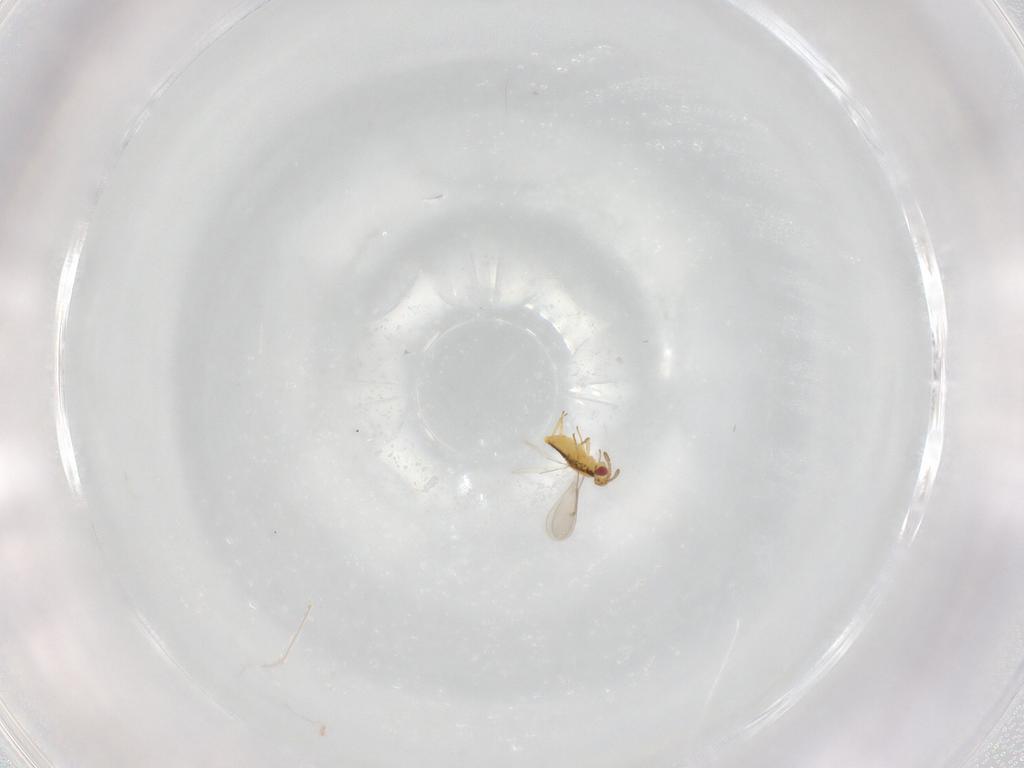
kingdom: Animalia
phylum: Arthropoda
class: Insecta
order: Hymenoptera
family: Aphelinidae
